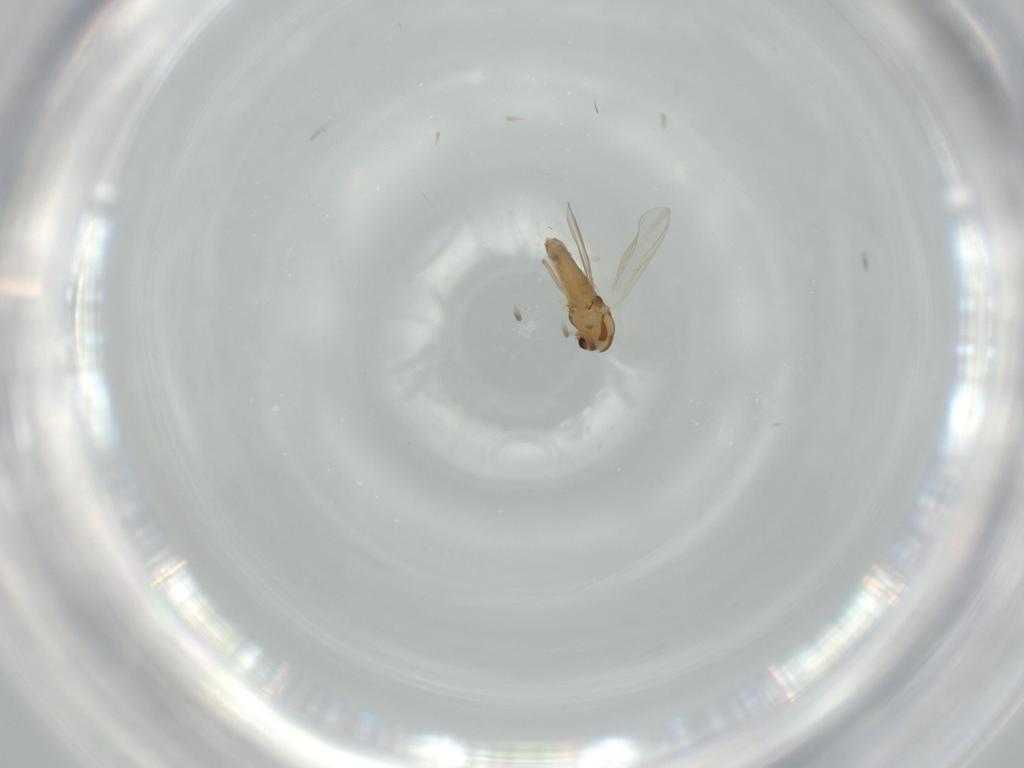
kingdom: Animalia
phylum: Arthropoda
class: Insecta
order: Diptera
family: Chironomidae
